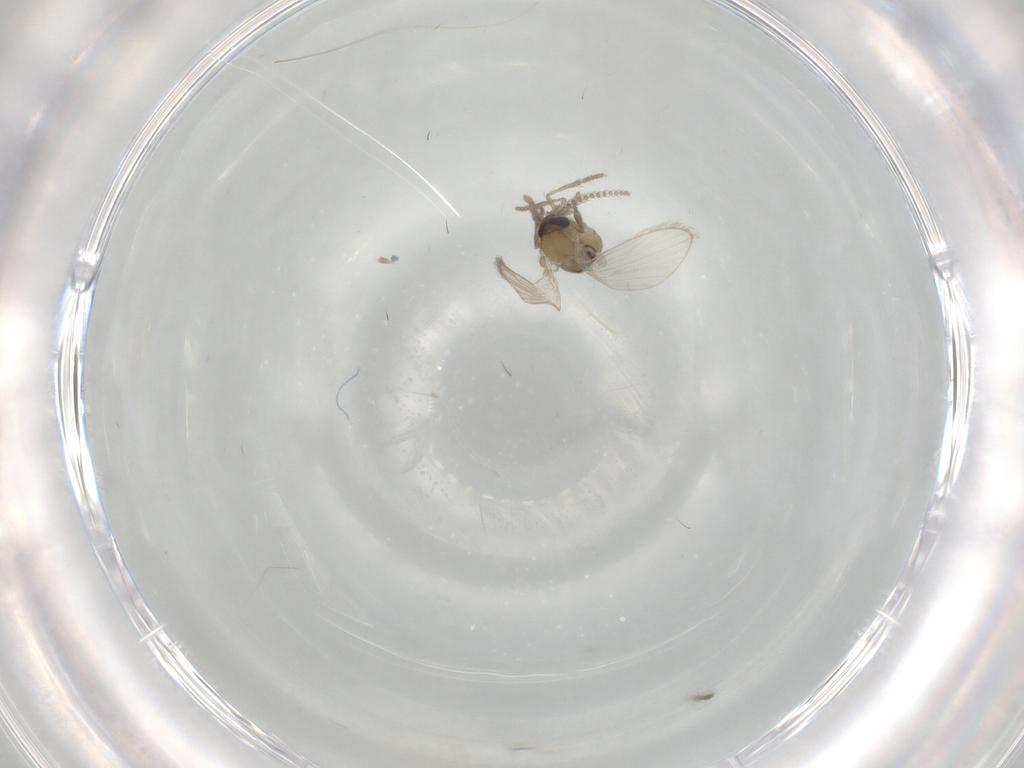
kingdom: Animalia
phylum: Arthropoda
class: Insecta
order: Diptera
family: Psychodidae
